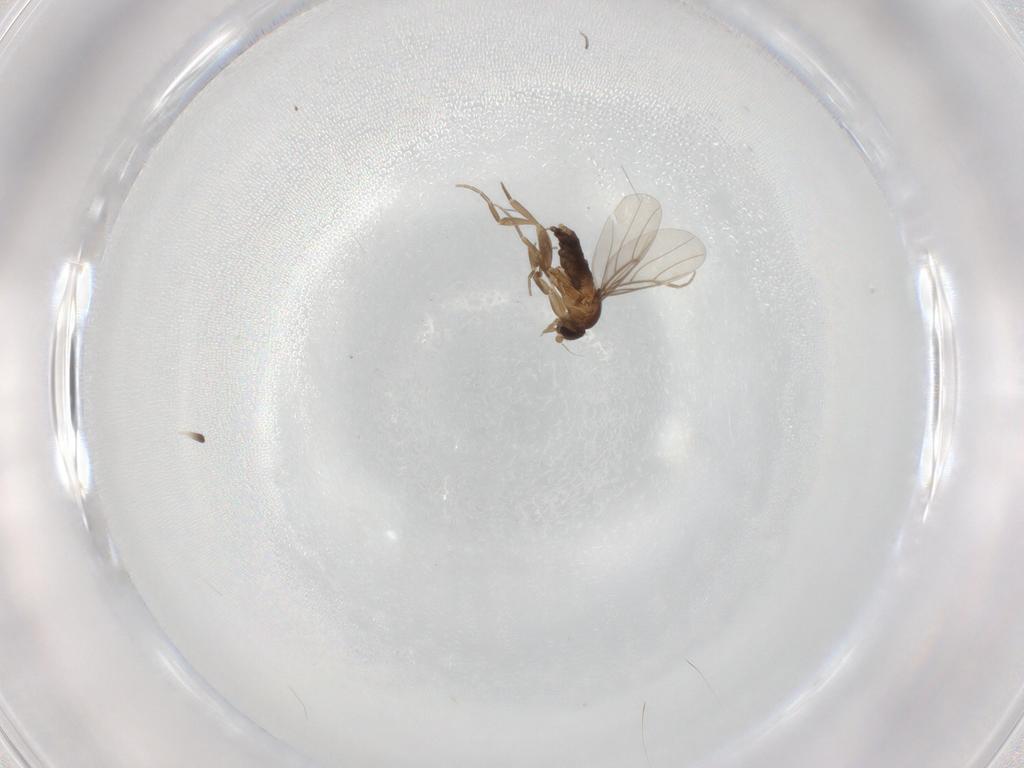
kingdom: Animalia
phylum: Arthropoda
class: Insecta
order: Diptera
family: Phoridae
